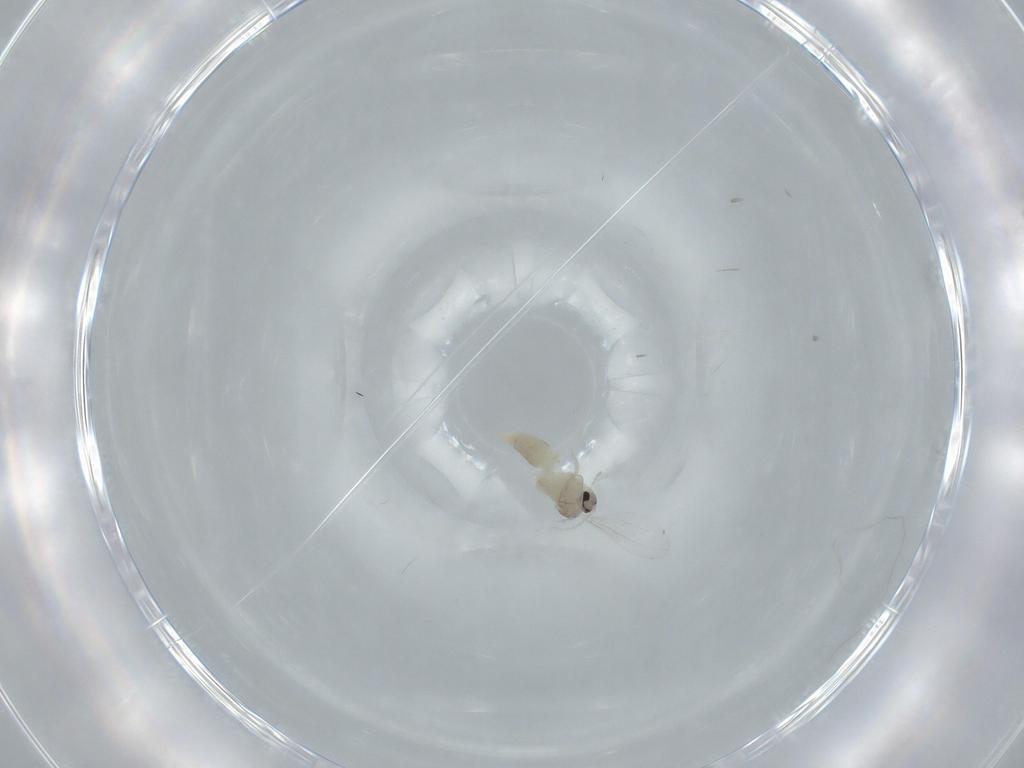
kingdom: Animalia
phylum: Arthropoda
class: Insecta
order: Diptera
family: Cecidomyiidae
